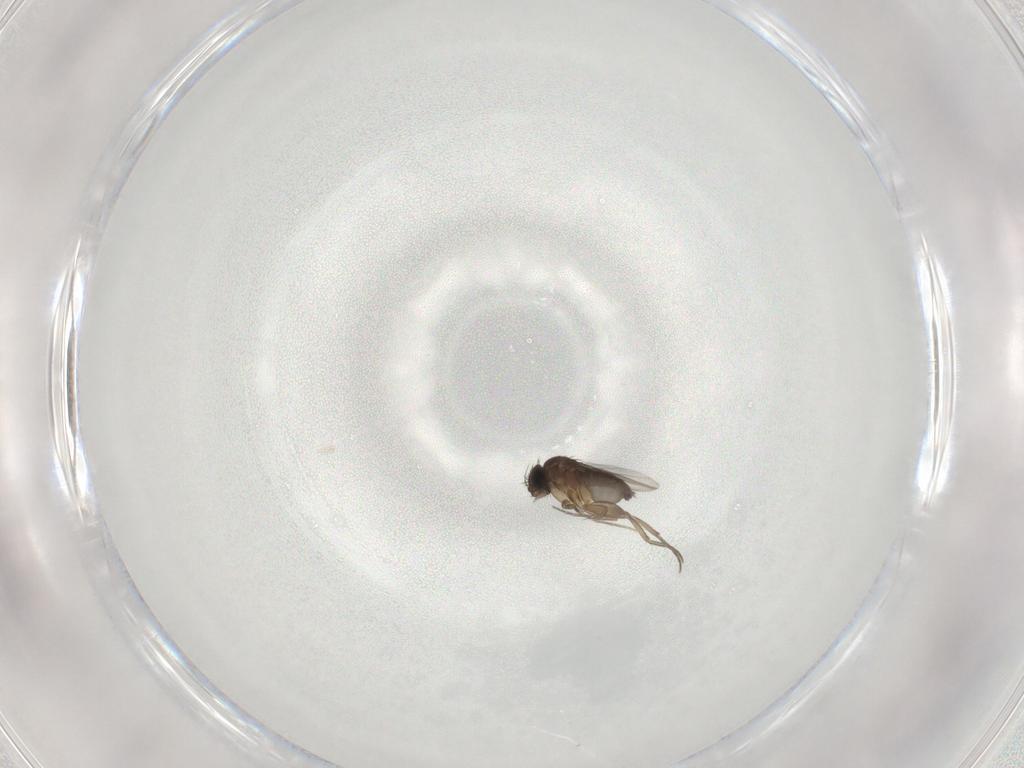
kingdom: Animalia
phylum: Arthropoda
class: Insecta
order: Diptera
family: Phoridae
